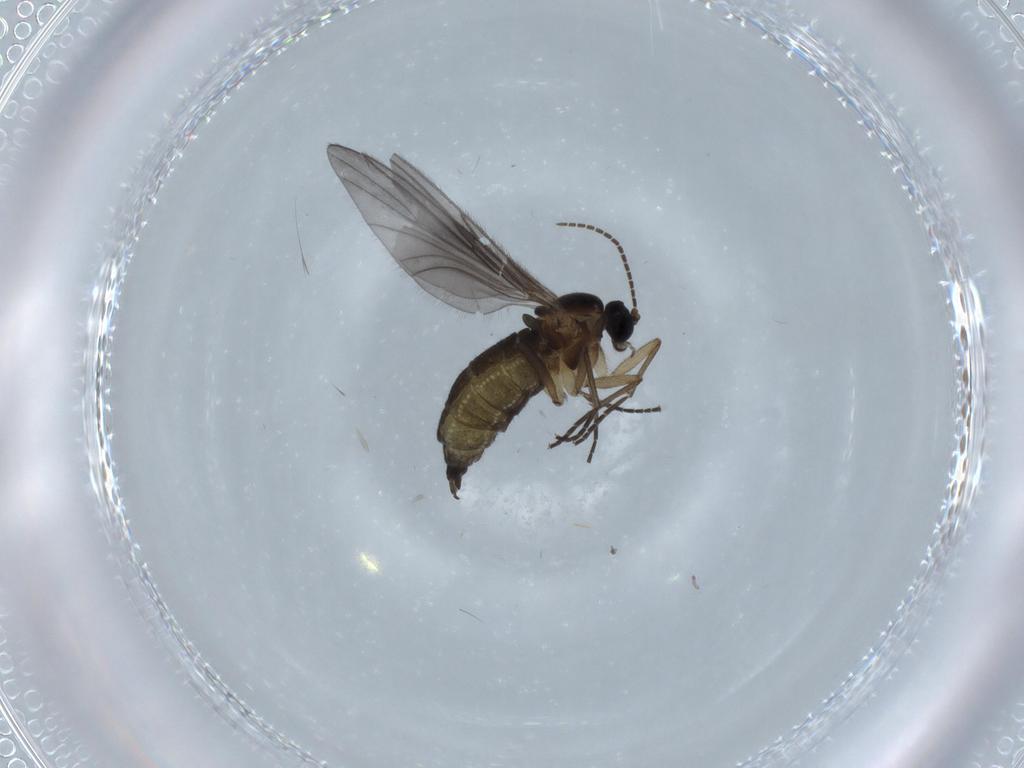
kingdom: Animalia
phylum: Arthropoda
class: Insecta
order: Diptera
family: Sciaridae
